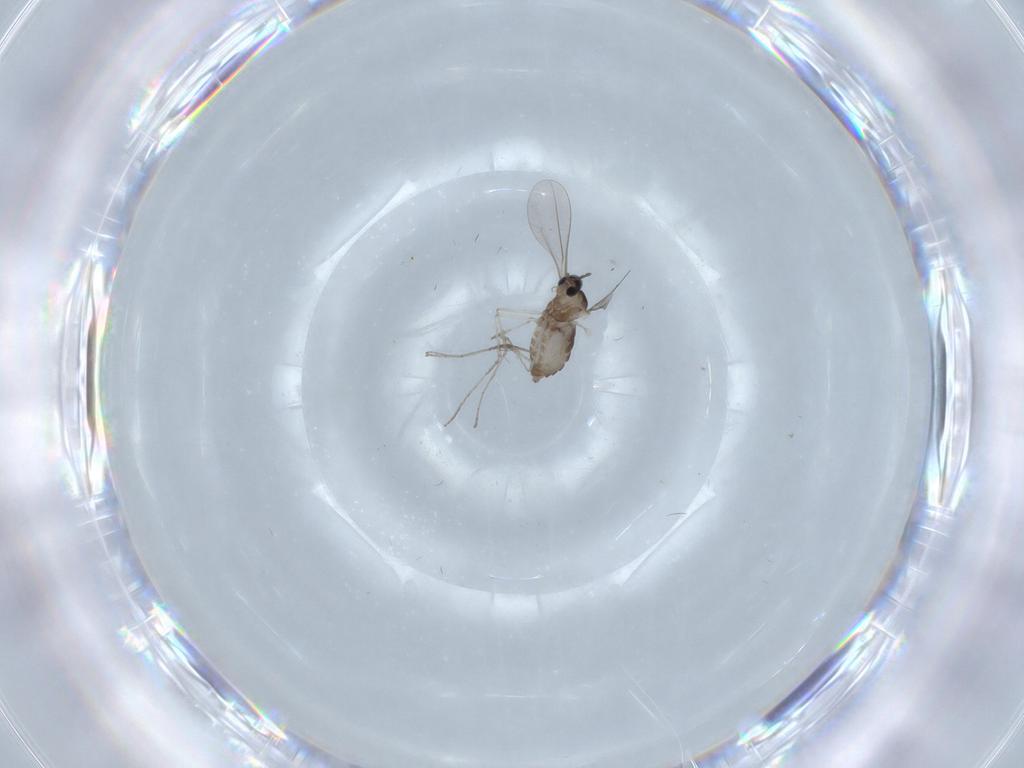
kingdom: Animalia
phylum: Arthropoda
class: Insecta
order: Diptera
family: Cecidomyiidae
